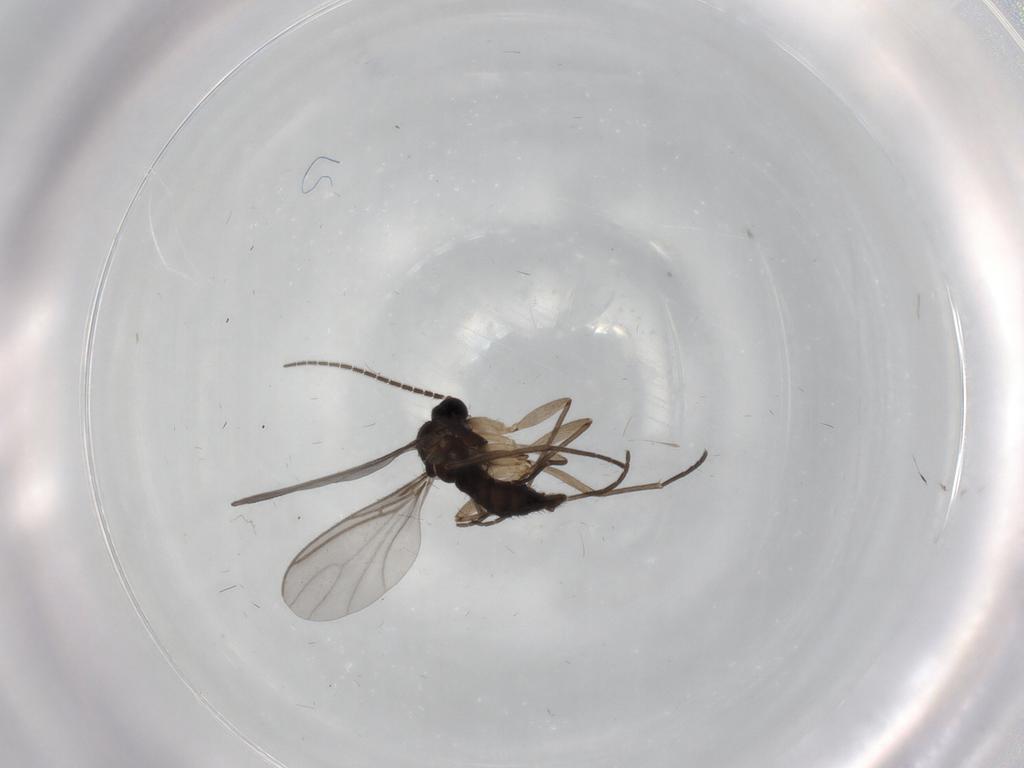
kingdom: Animalia
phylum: Arthropoda
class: Insecta
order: Diptera
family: Sciaridae
